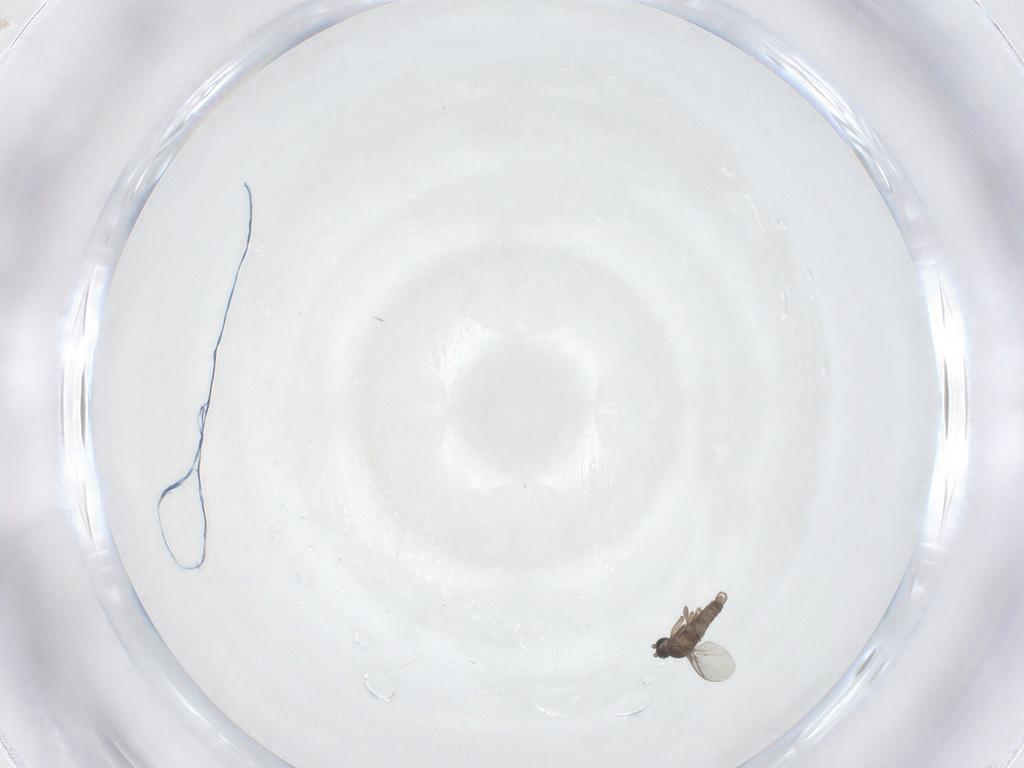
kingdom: Animalia
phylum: Arthropoda
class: Insecta
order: Diptera
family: Sciaridae
